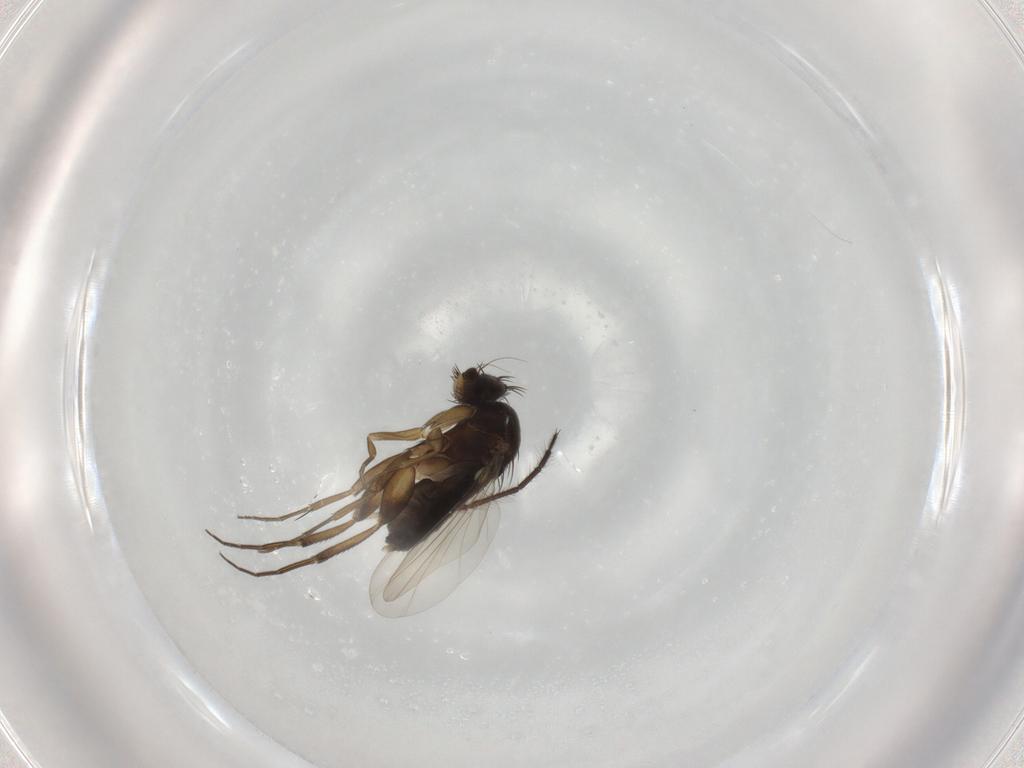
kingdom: Animalia
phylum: Arthropoda
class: Insecta
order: Diptera
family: Phoridae
